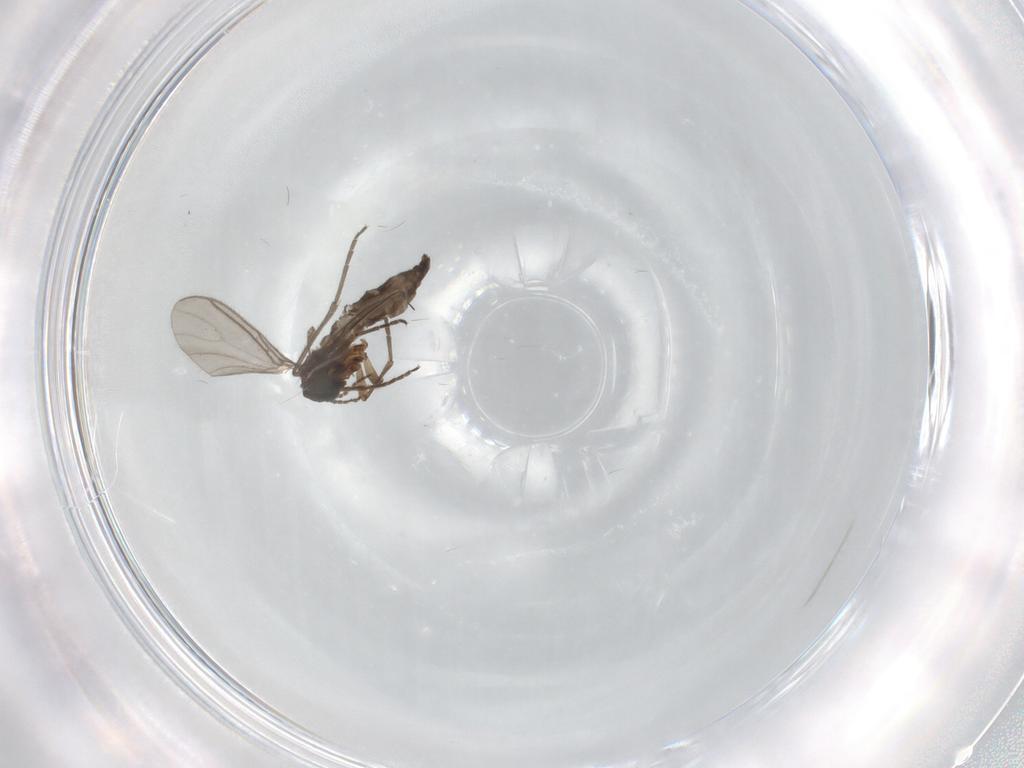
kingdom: Animalia
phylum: Arthropoda
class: Insecta
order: Diptera
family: Sciaridae
